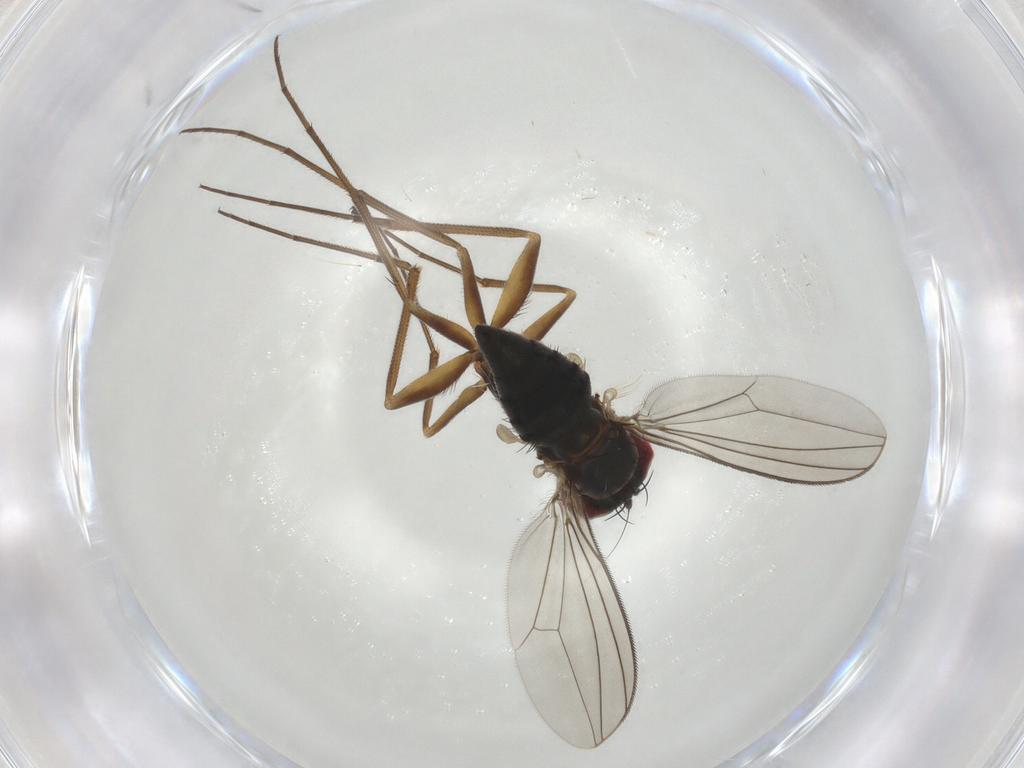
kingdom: Animalia
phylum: Arthropoda
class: Insecta
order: Diptera
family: Dolichopodidae
